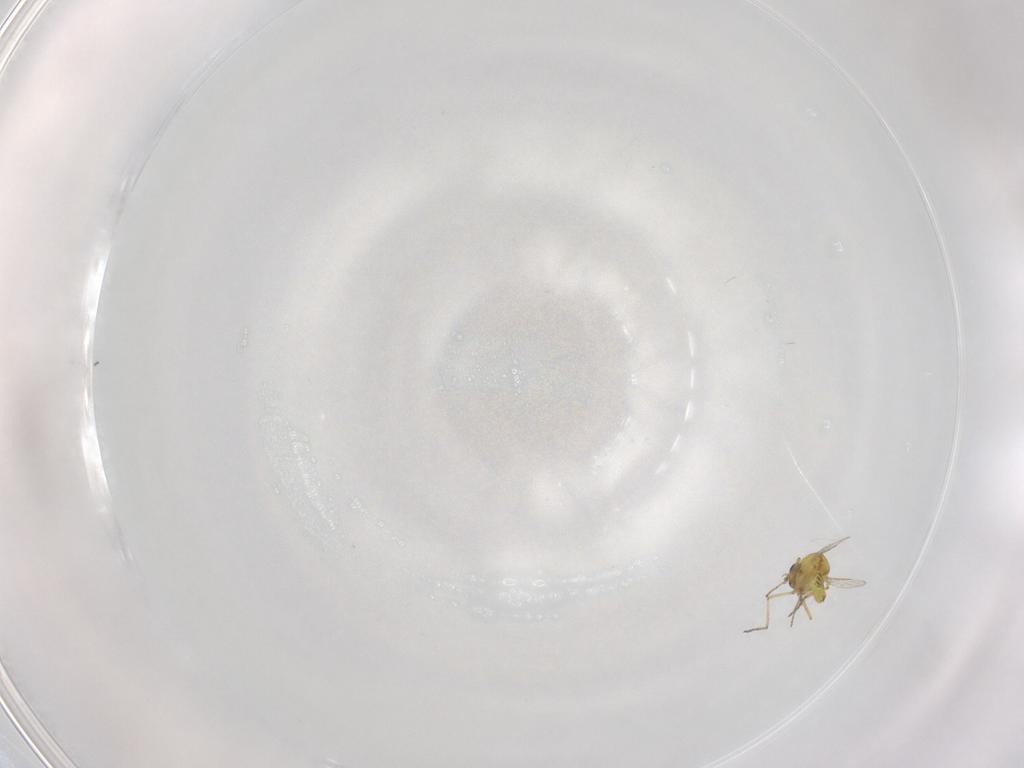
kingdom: Animalia
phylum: Arthropoda
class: Insecta
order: Diptera
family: Ceratopogonidae
